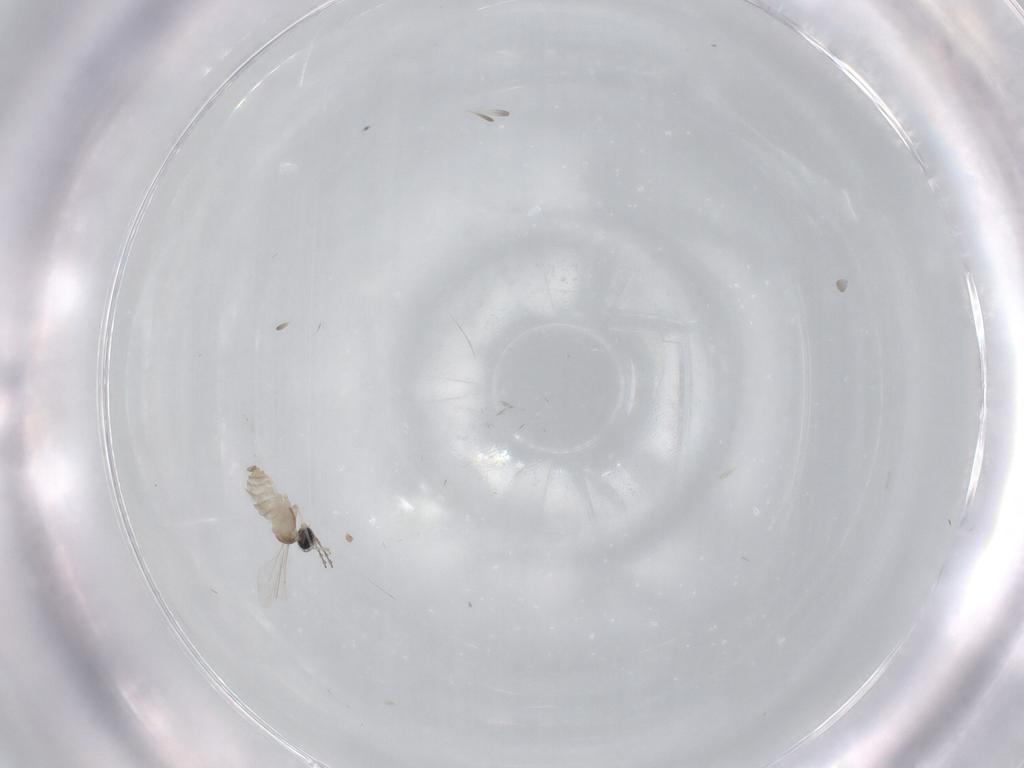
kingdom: Animalia
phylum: Arthropoda
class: Insecta
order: Diptera
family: Cecidomyiidae
